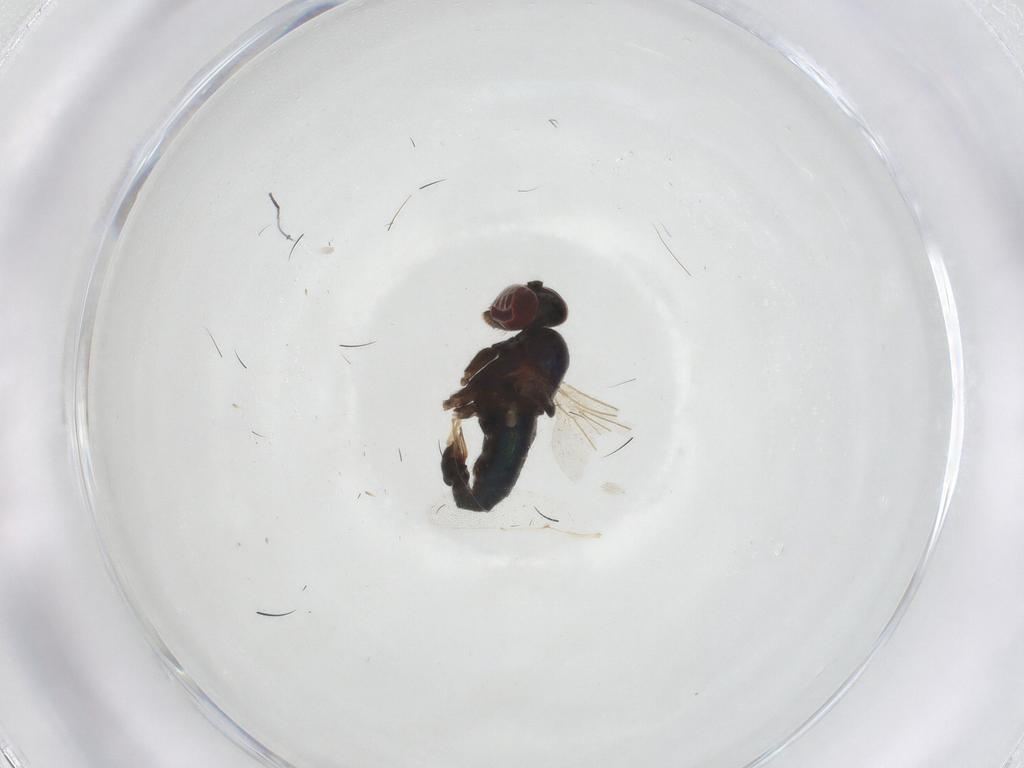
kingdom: Animalia
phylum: Arthropoda
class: Insecta
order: Diptera
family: Dolichopodidae
